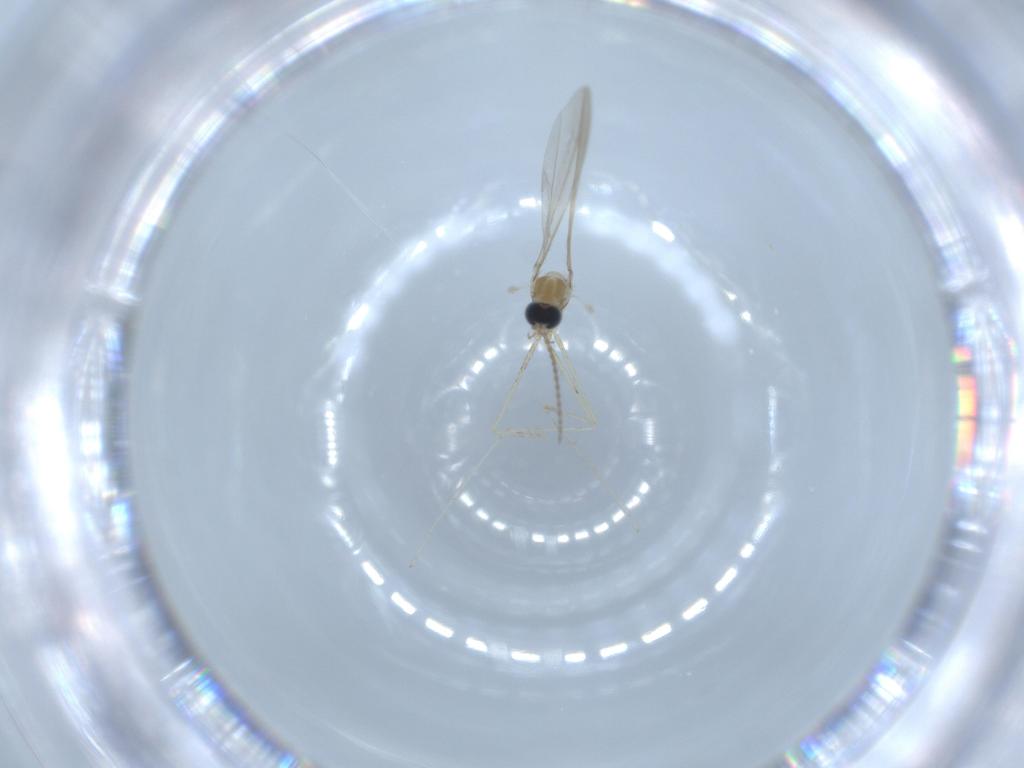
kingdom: Animalia
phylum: Arthropoda
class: Insecta
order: Diptera
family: Cecidomyiidae
